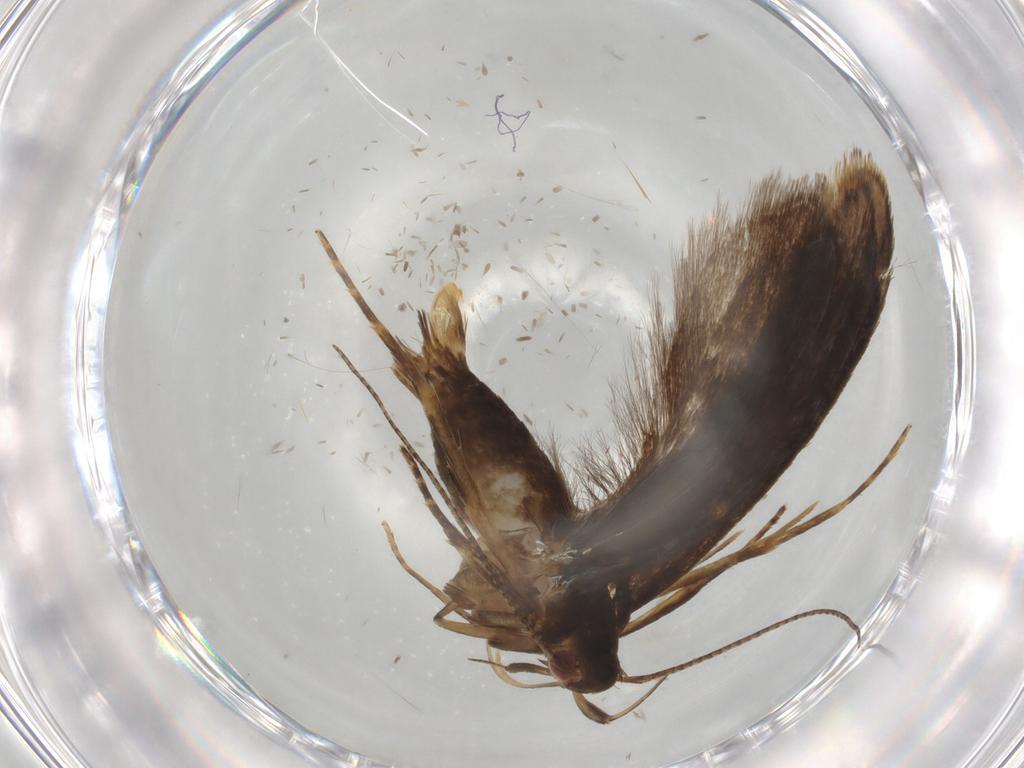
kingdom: Animalia
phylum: Arthropoda
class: Insecta
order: Lepidoptera
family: Gelechiidae
